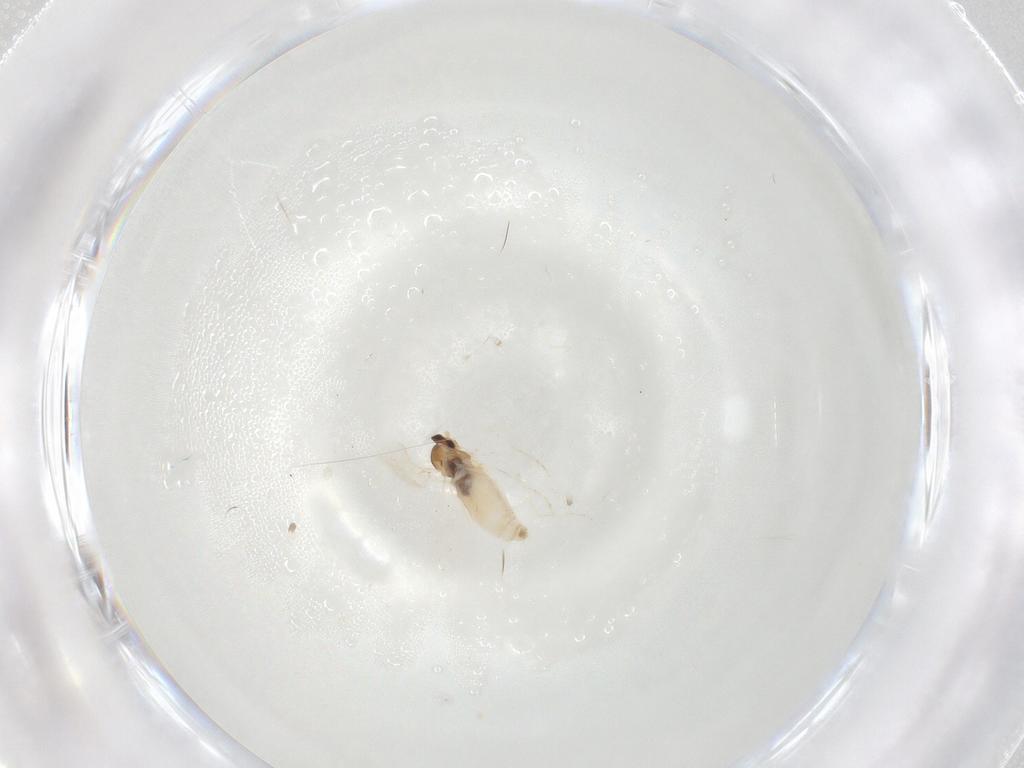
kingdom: Animalia
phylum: Arthropoda
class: Insecta
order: Diptera
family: Cecidomyiidae
